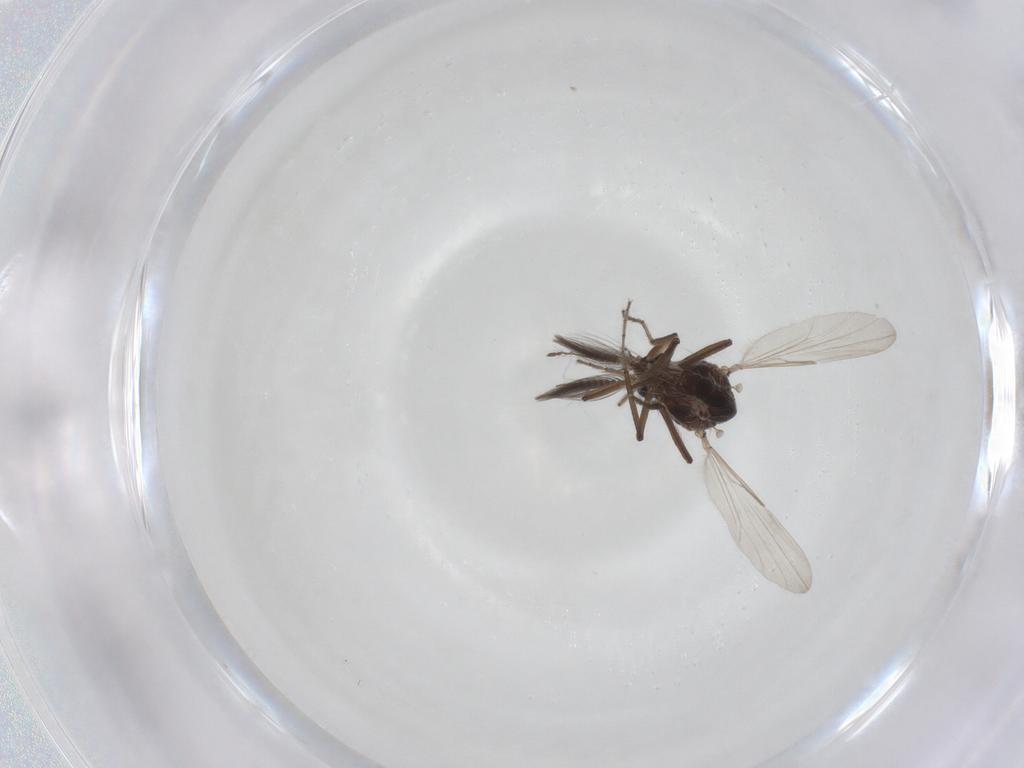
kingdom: Animalia
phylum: Arthropoda
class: Insecta
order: Diptera
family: Ceratopogonidae
